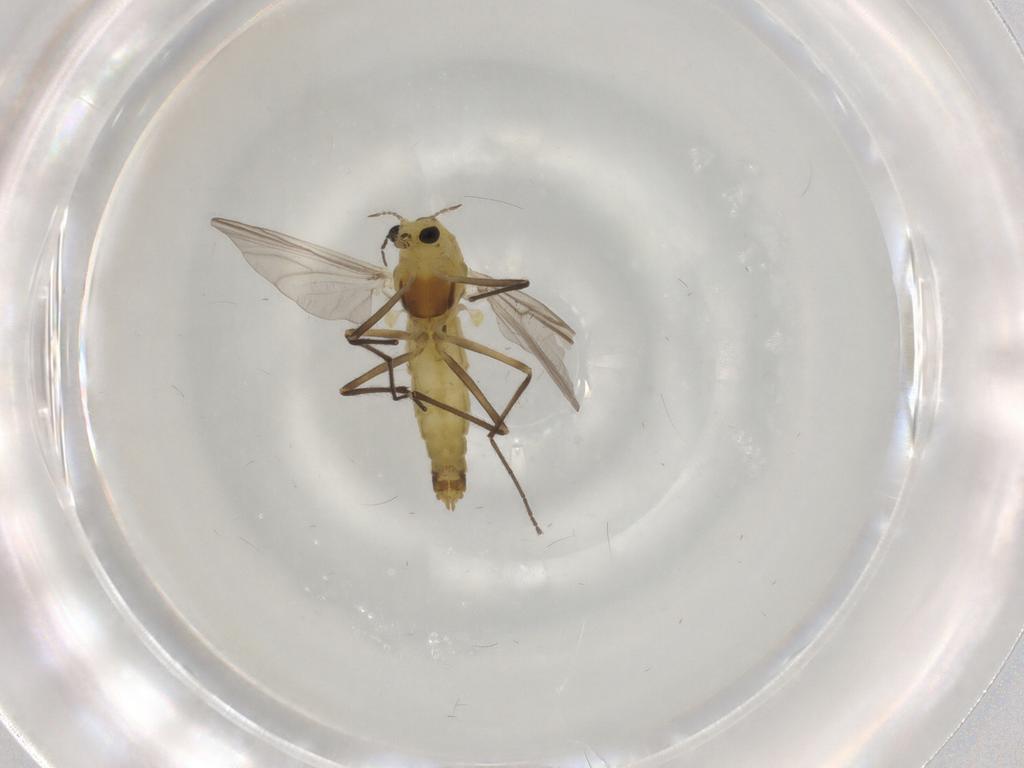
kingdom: Animalia
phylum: Arthropoda
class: Insecta
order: Diptera
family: Chironomidae
